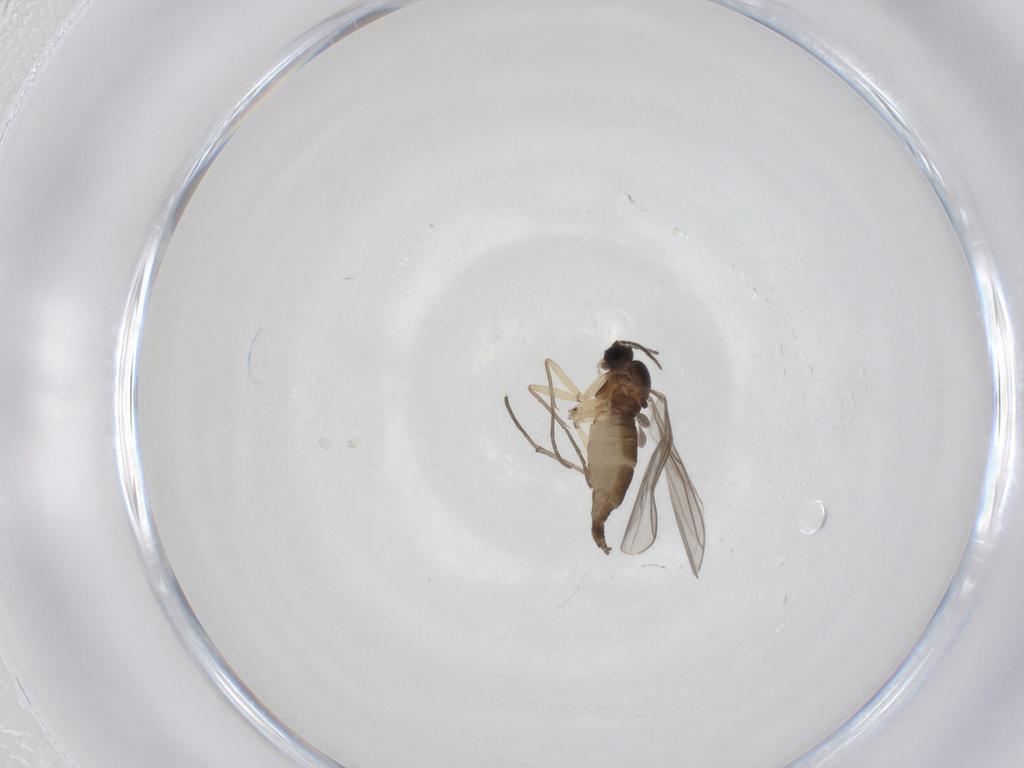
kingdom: Animalia
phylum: Arthropoda
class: Insecta
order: Diptera
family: Sciaridae
